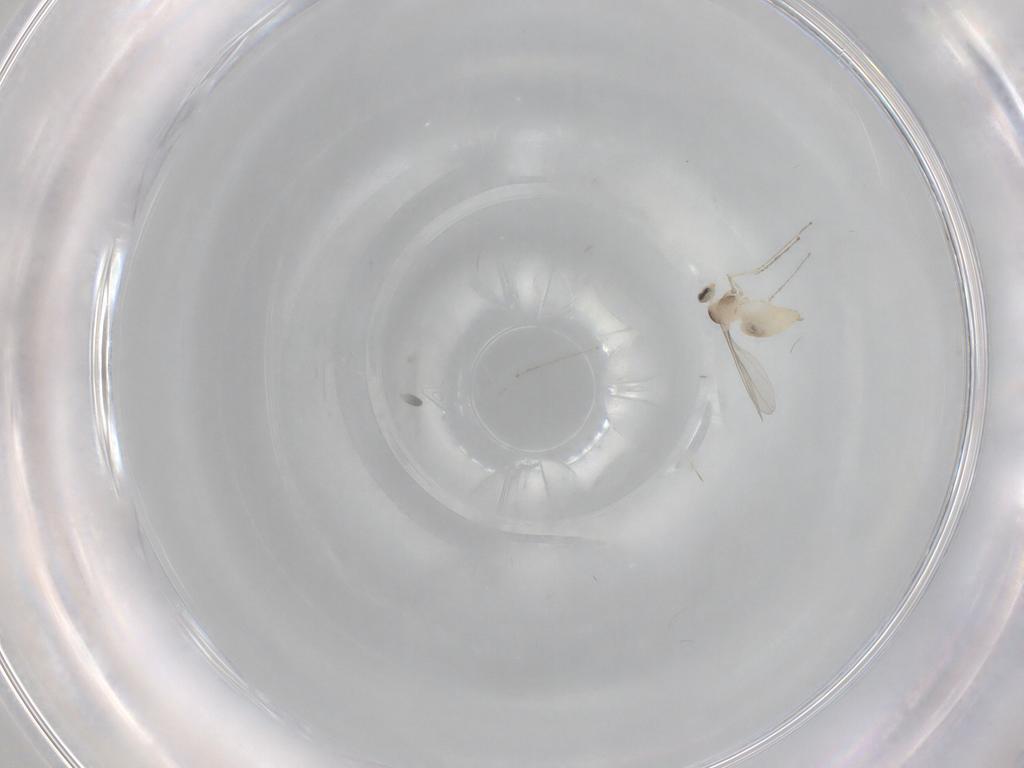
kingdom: Animalia
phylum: Arthropoda
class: Insecta
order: Diptera
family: Cecidomyiidae
